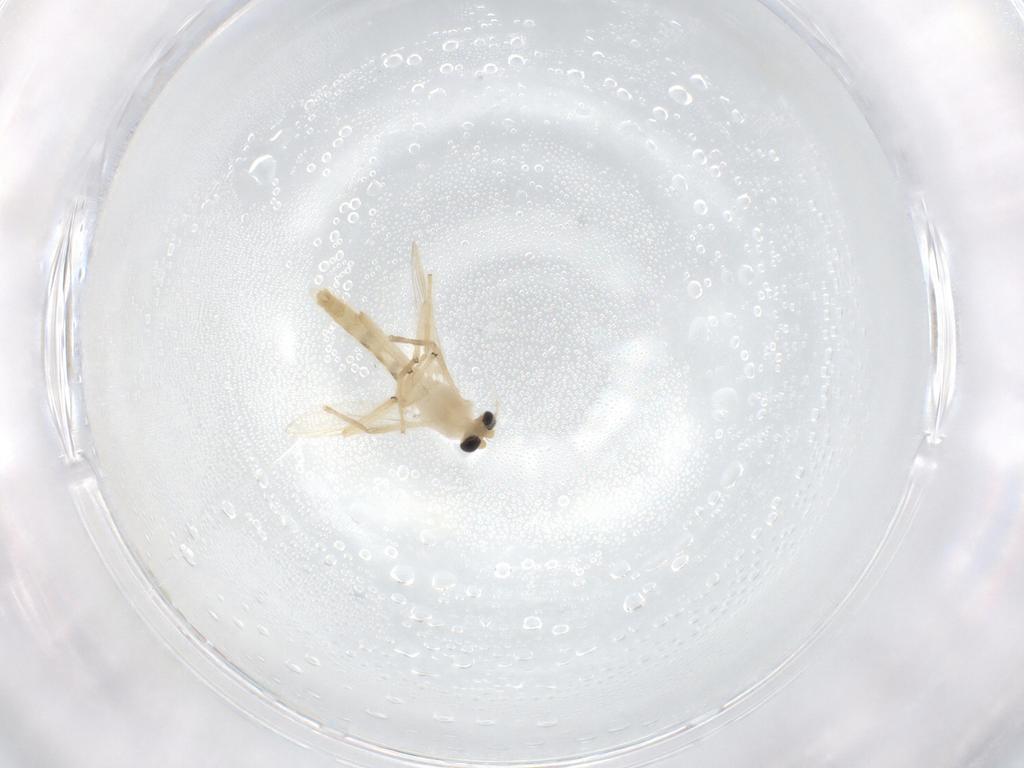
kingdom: Animalia
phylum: Arthropoda
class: Insecta
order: Diptera
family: Chironomidae
